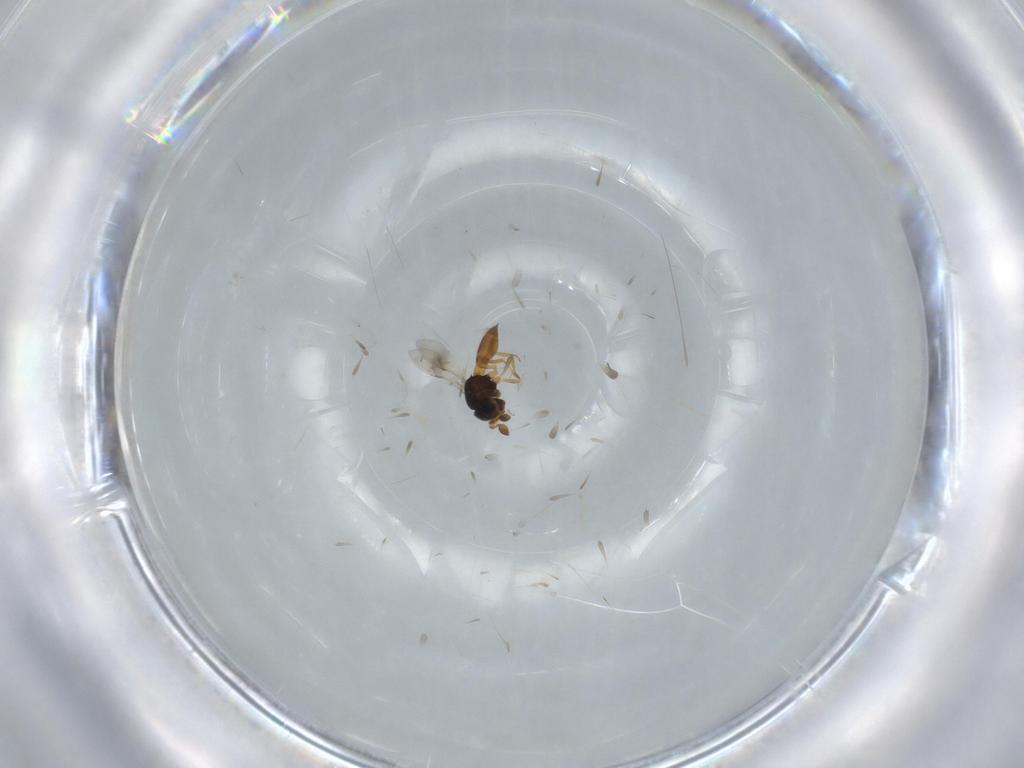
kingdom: Animalia
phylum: Arthropoda
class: Insecta
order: Hymenoptera
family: Scelionidae
